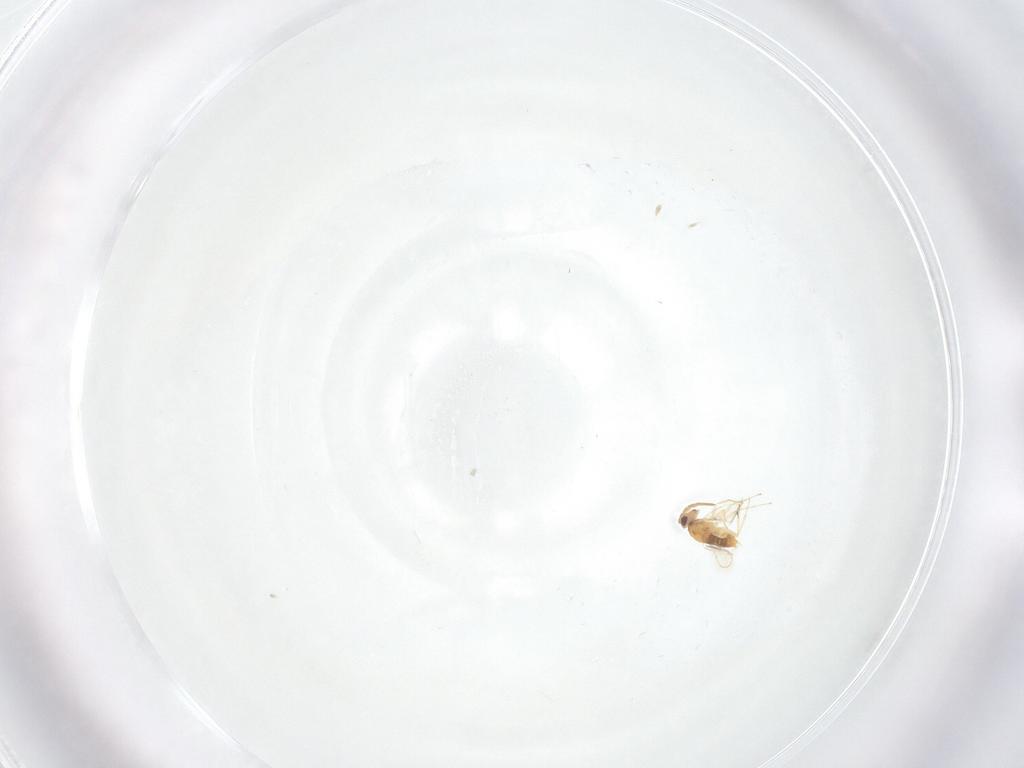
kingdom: Animalia
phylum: Arthropoda
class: Insecta
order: Hymenoptera
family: Aphelinidae
